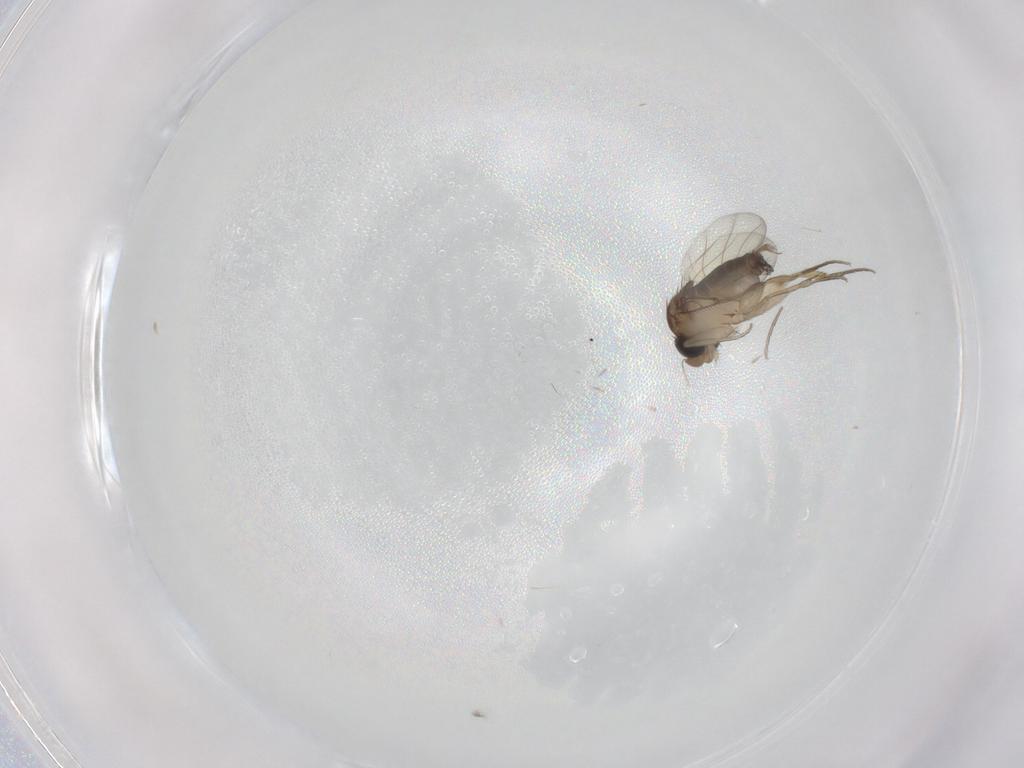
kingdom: Animalia
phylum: Arthropoda
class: Insecta
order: Diptera
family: Phoridae
